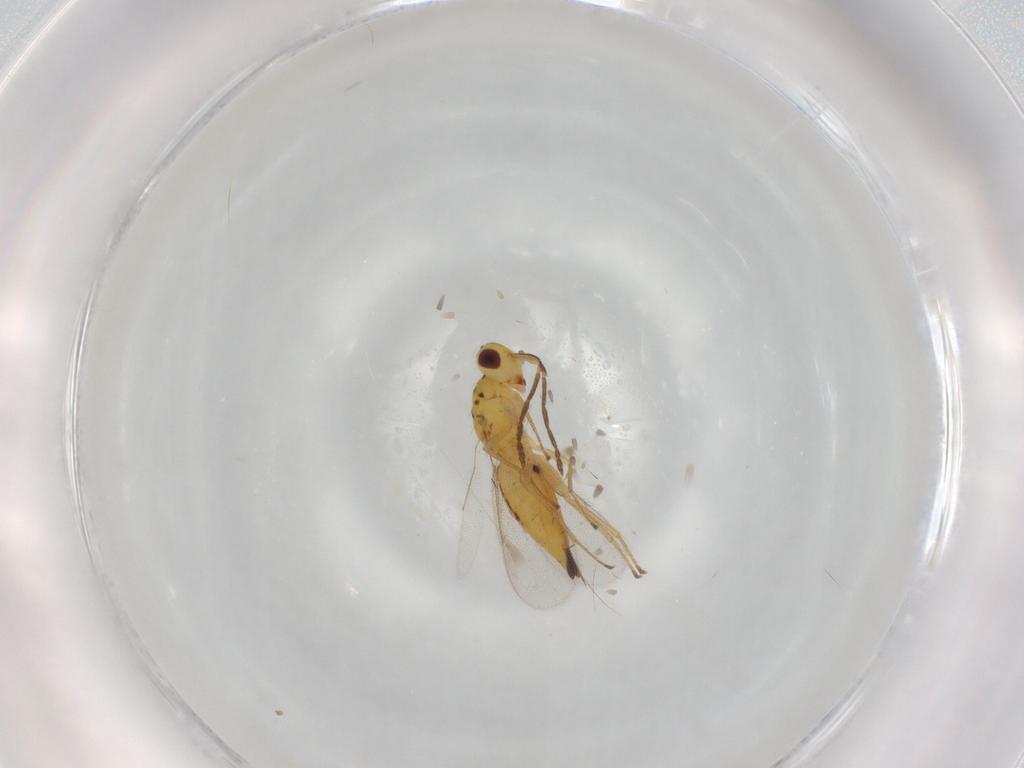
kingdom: Animalia
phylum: Arthropoda
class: Insecta
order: Hymenoptera
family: Eulophidae
